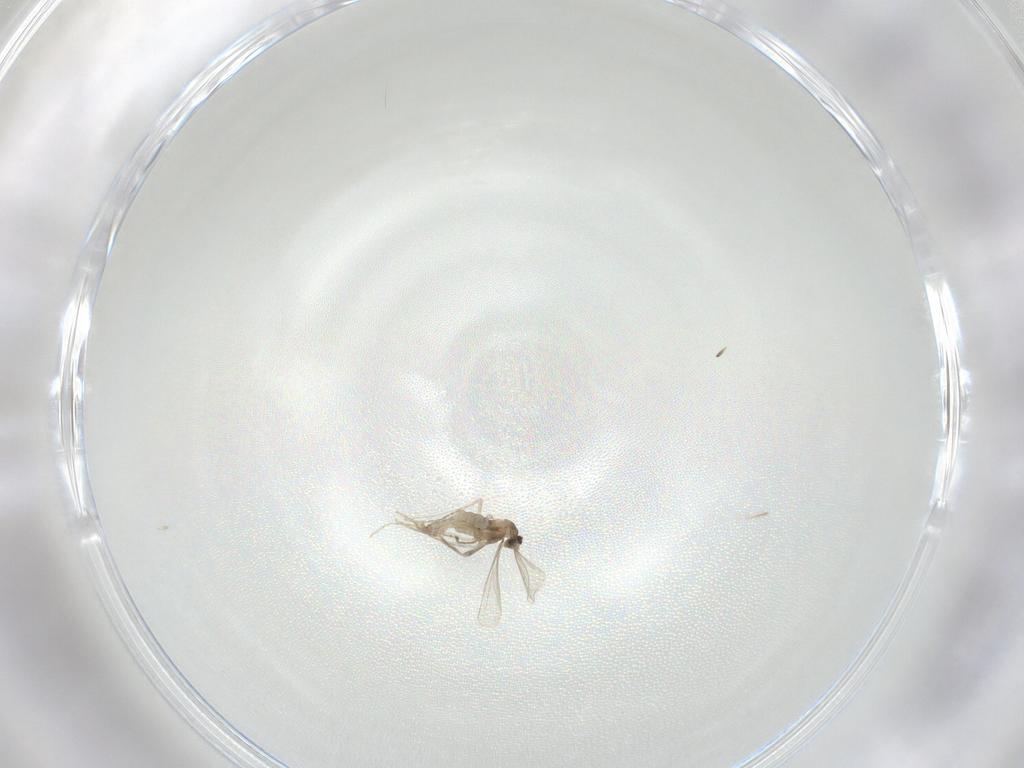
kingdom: Animalia
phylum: Arthropoda
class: Insecta
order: Diptera
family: Cecidomyiidae
